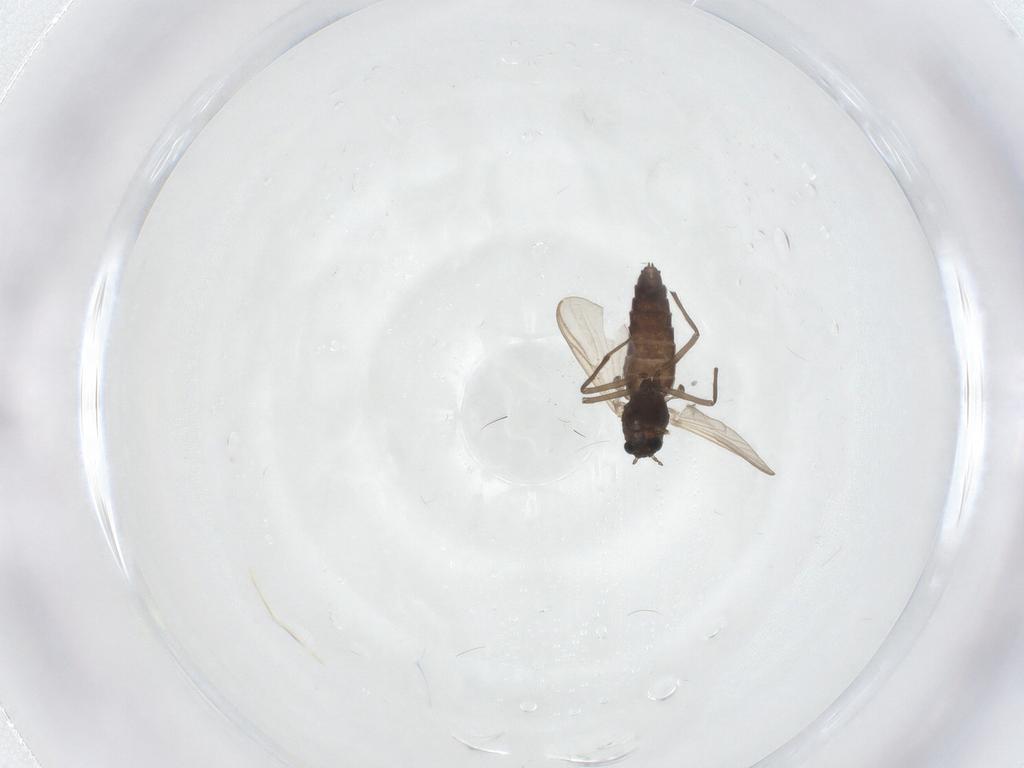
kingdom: Animalia
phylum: Arthropoda
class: Insecta
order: Diptera
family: Ceratopogonidae
